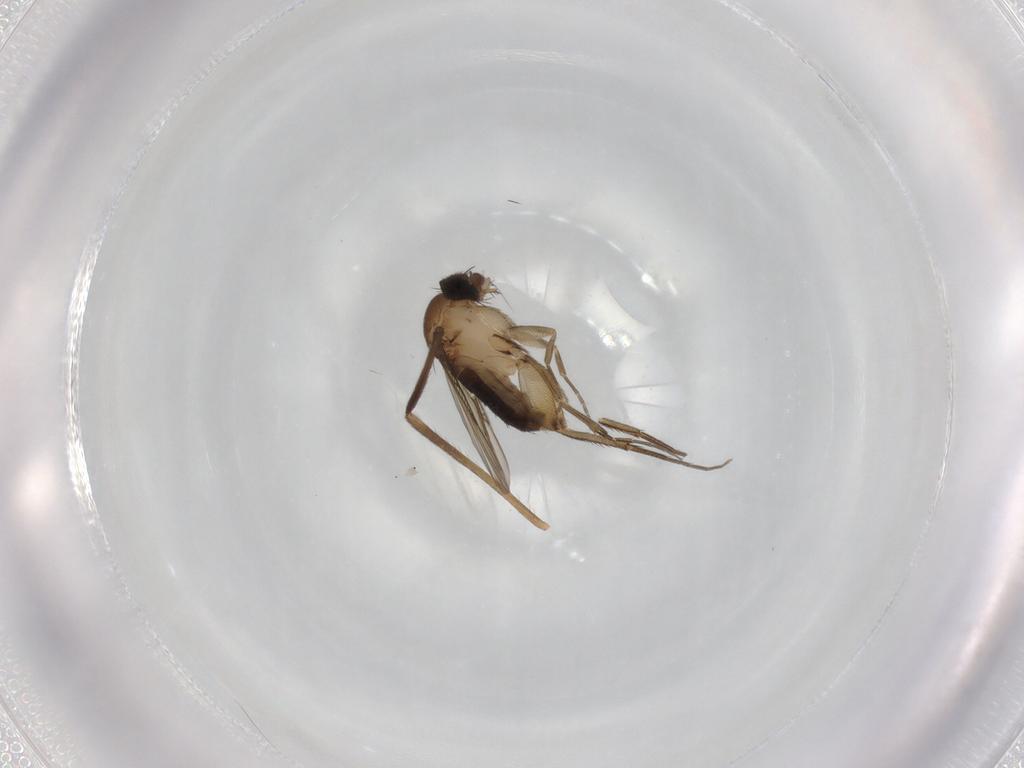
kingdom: Animalia
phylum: Arthropoda
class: Insecta
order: Diptera
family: Phoridae
